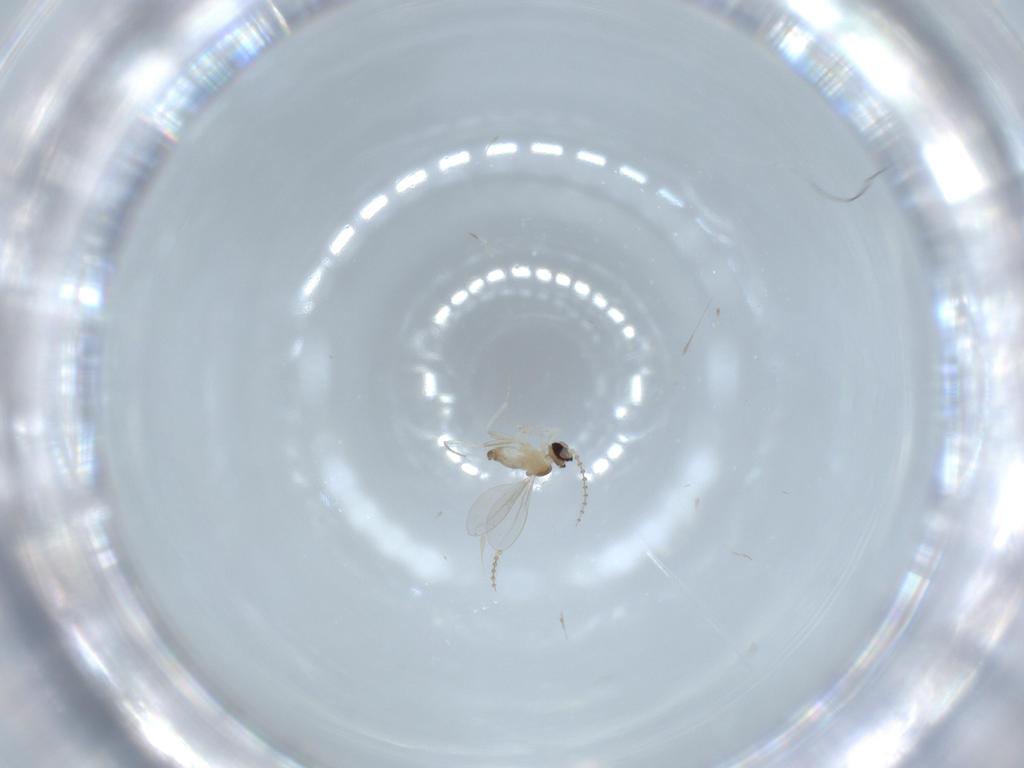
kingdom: Animalia
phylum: Arthropoda
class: Insecta
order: Diptera
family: Cecidomyiidae
